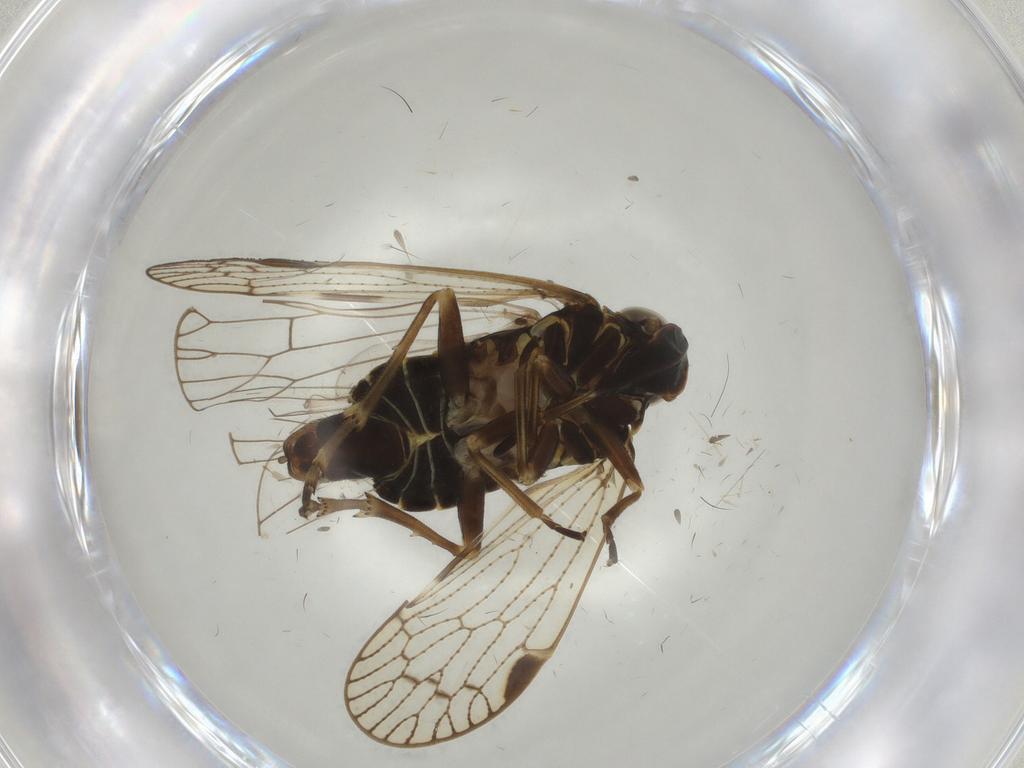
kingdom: Animalia
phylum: Arthropoda
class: Insecta
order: Hemiptera
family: Cixiidae
